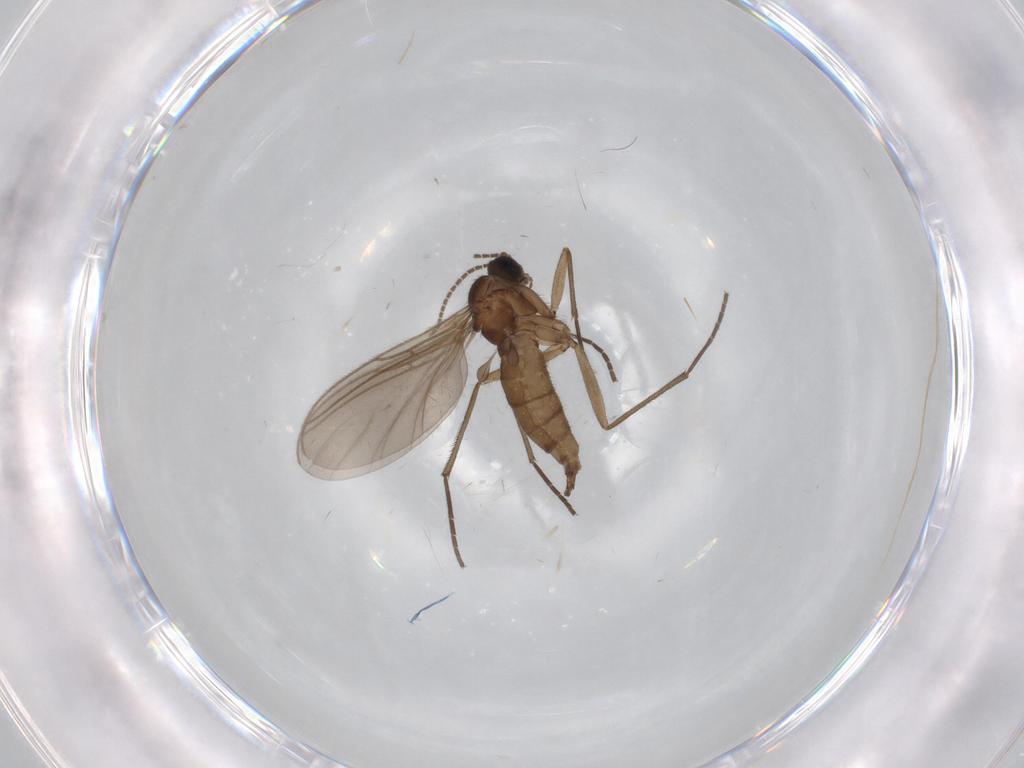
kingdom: Animalia
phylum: Arthropoda
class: Insecta
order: Diptera
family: Sciaridae
